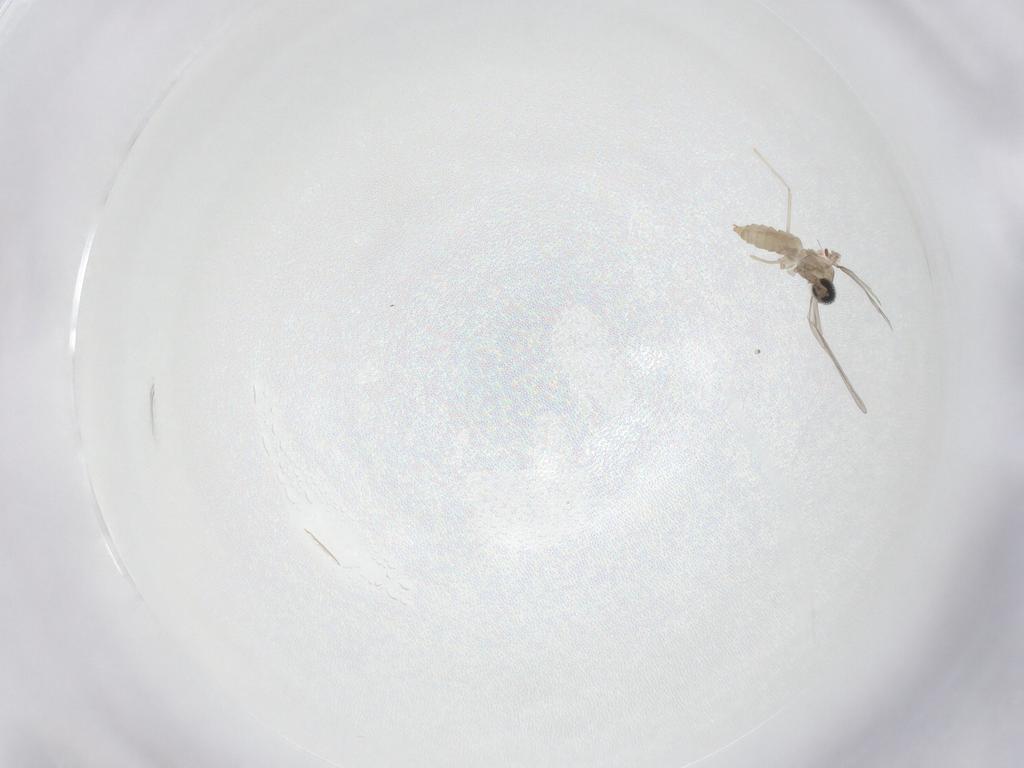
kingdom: Animalia
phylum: Arthropoda
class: Insecta
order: Diptera
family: Cecidomyiidae
